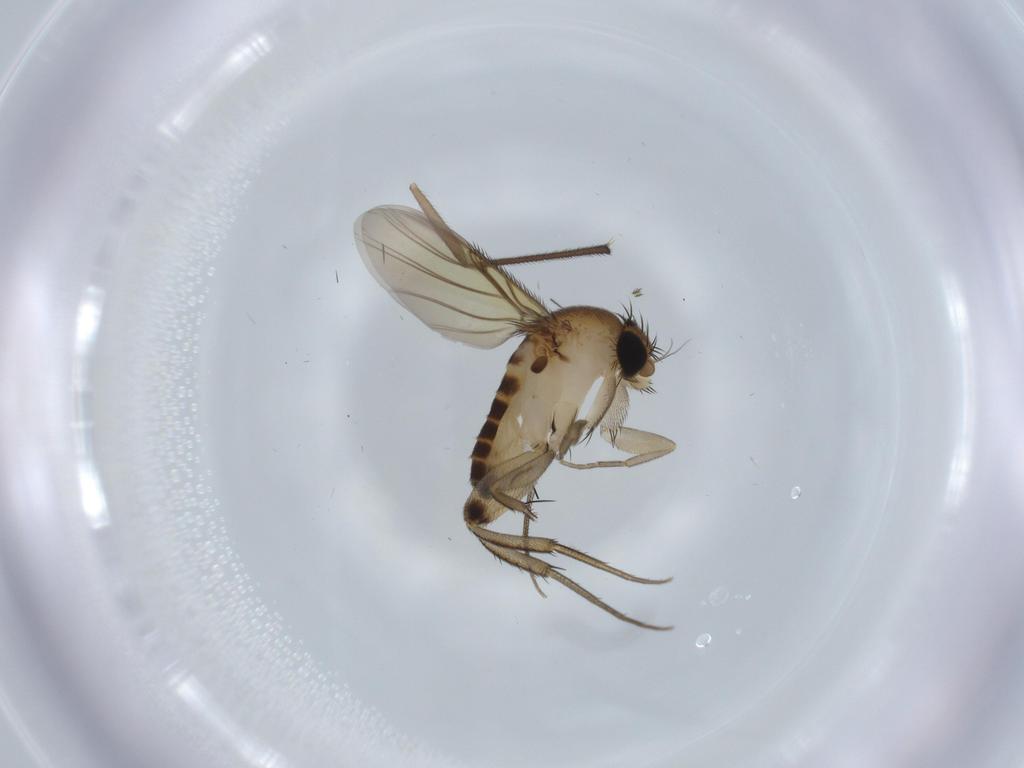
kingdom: Animalia
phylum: Arthropoda
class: Insecta
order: Diptera
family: Phoridae
